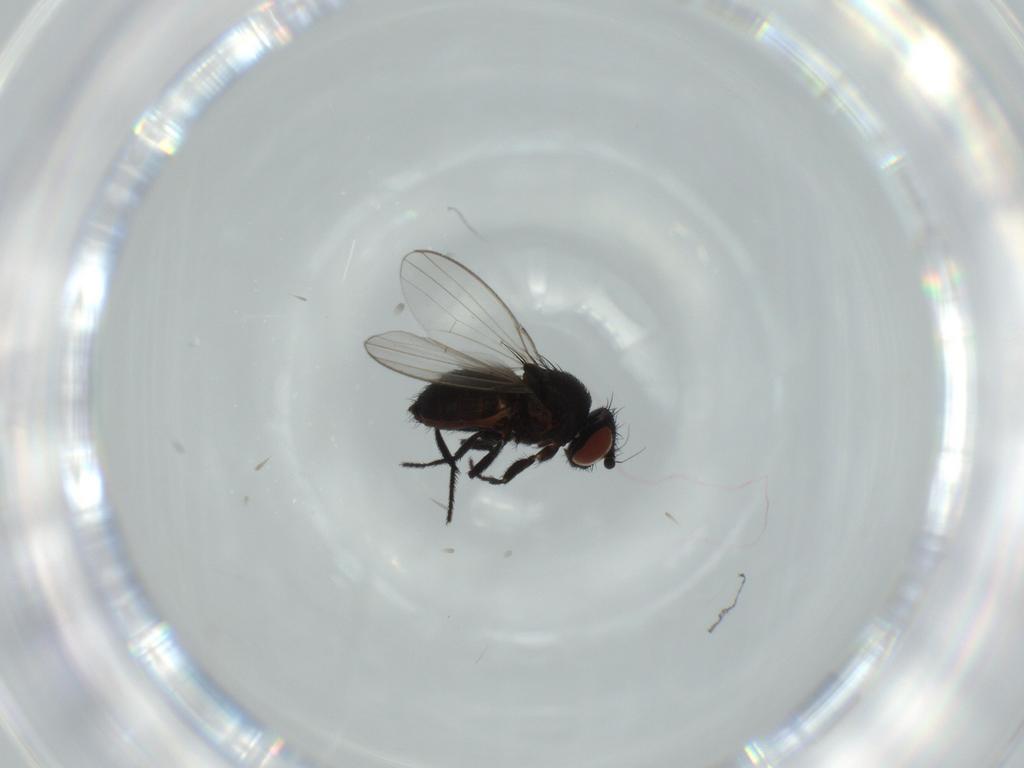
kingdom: Animalia
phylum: Arthropoda
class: Insecta
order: Diptera
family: Milichiidae
